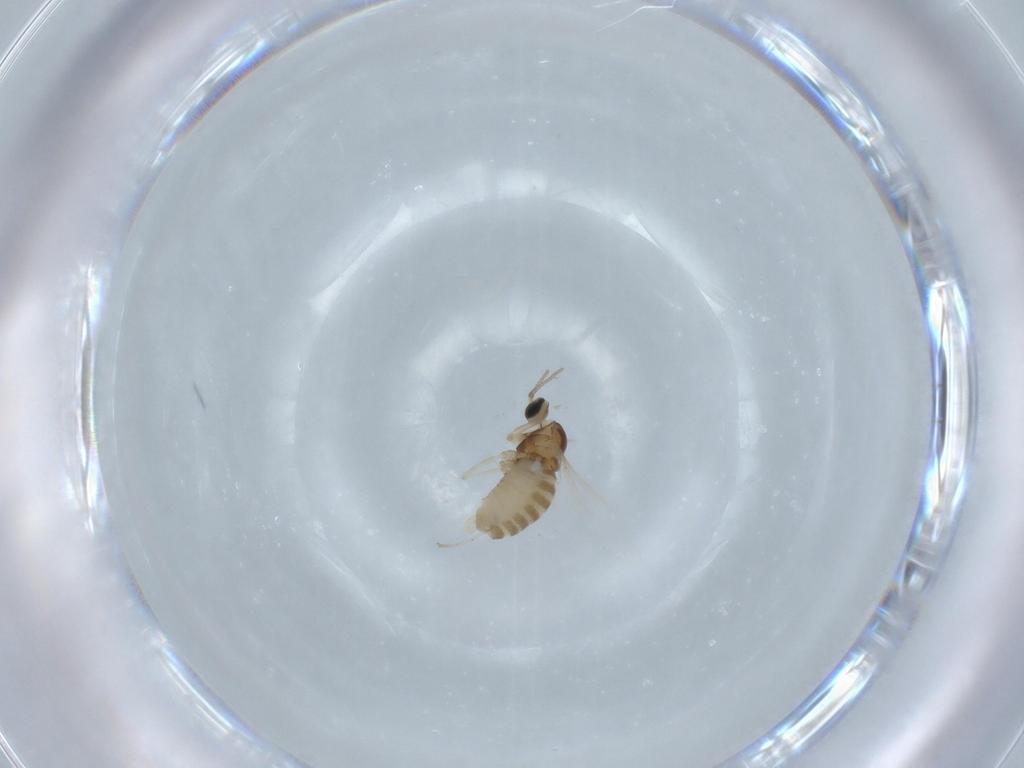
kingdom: Animalia
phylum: Arthropoda
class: Insecta
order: Diptera
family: Cecidomyiidae
